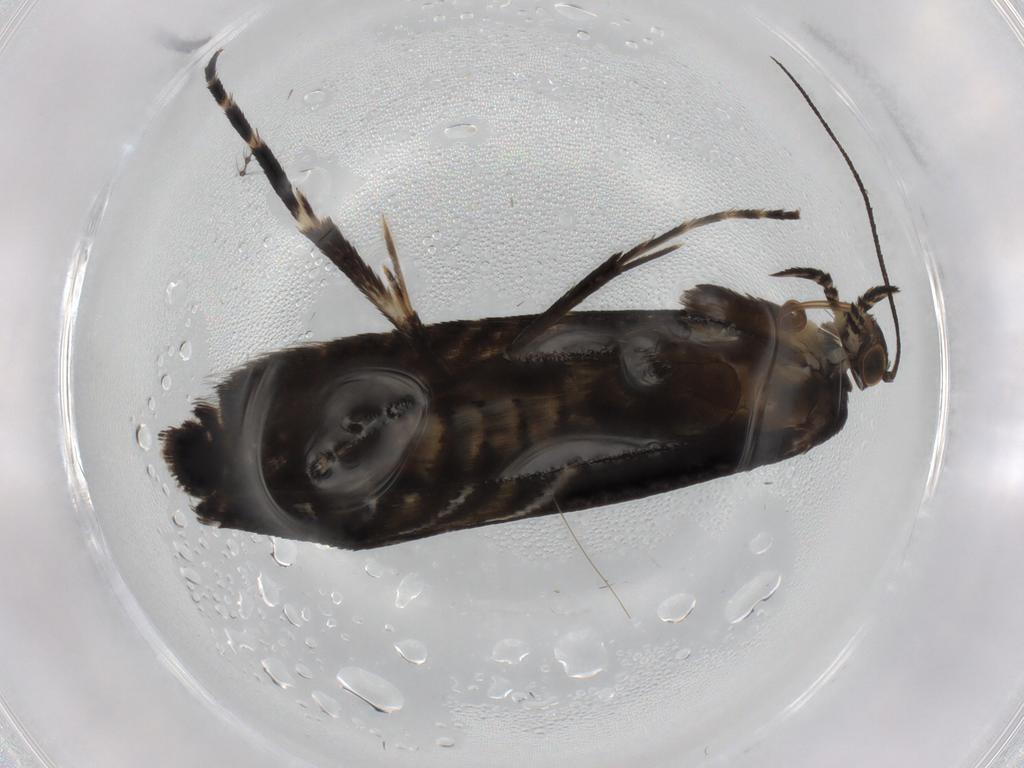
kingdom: Animalia
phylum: Arthropoda
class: Insecta
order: Lepidoptera
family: Glyphipterigidae
